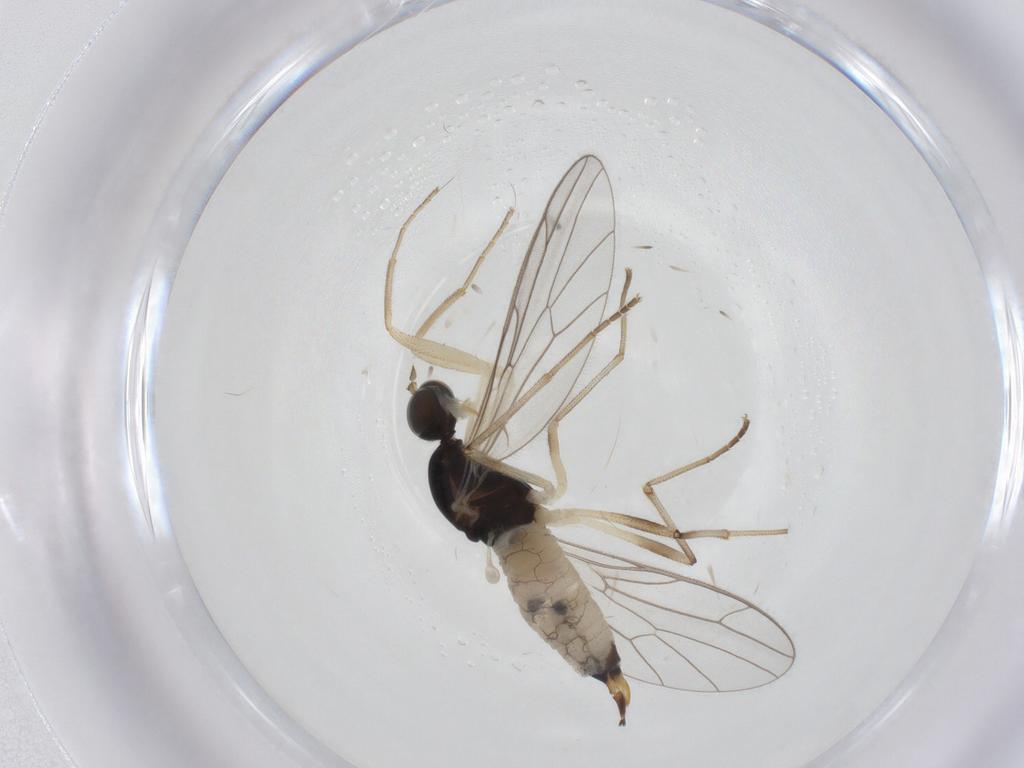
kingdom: Animalia
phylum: Arthropoda
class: Insecta
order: Diptera
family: Empididae
